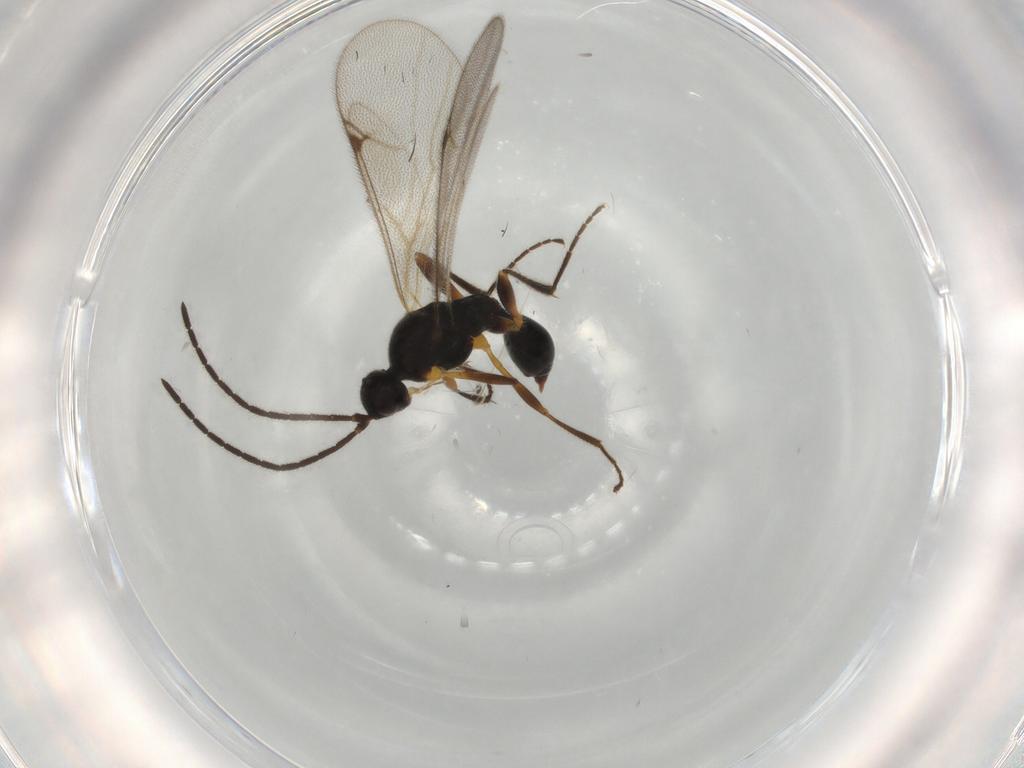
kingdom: Animalia
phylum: Arthropoda
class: Insecta
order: Hymenoptera
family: Proctotrupidae
